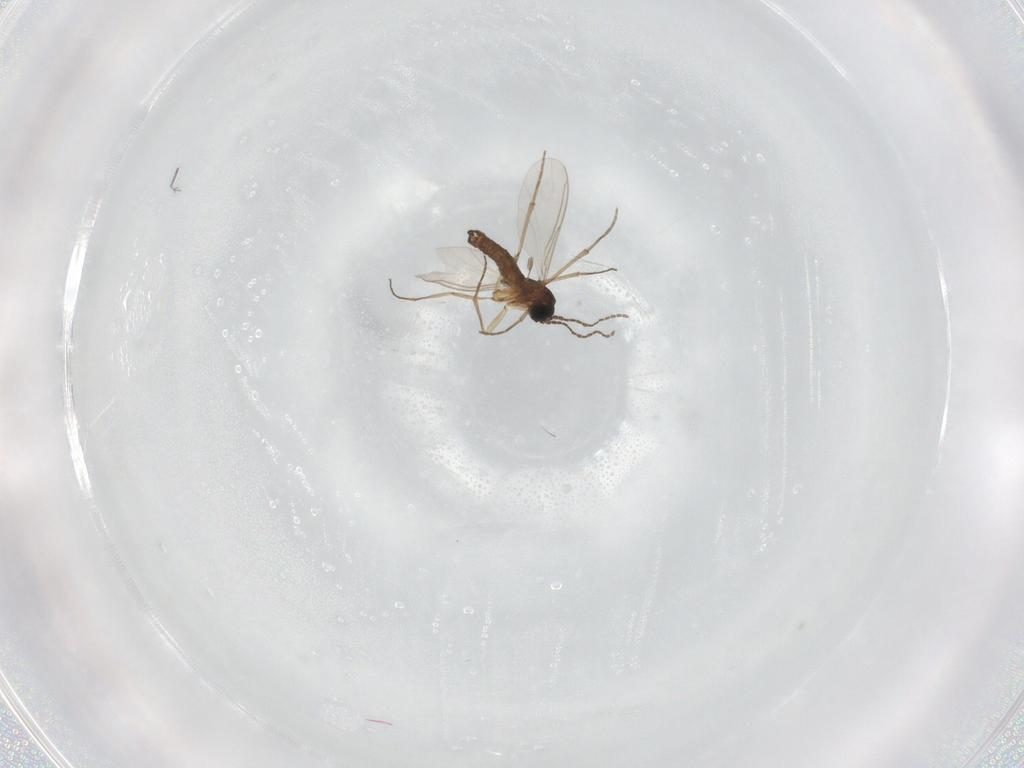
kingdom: Animalia
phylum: Arthropoda
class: Insecta
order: Diptera
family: Sciaridae
